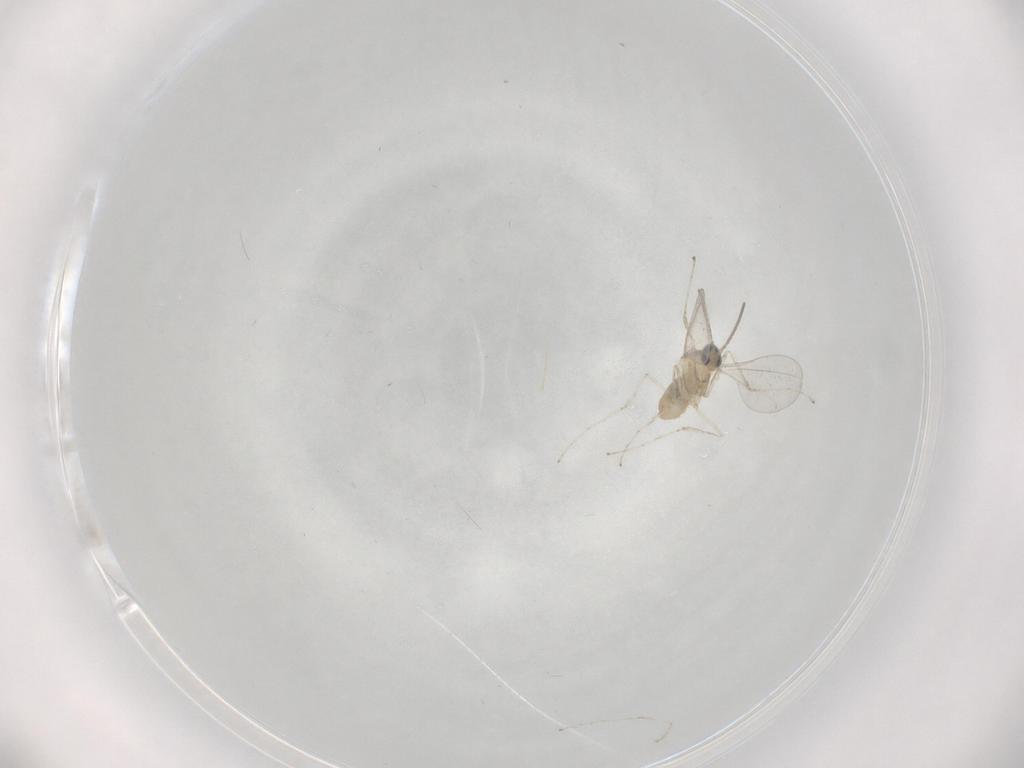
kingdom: Animalia
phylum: Arthropoda
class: Insecta
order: Diptera
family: Cecidomyiidae
